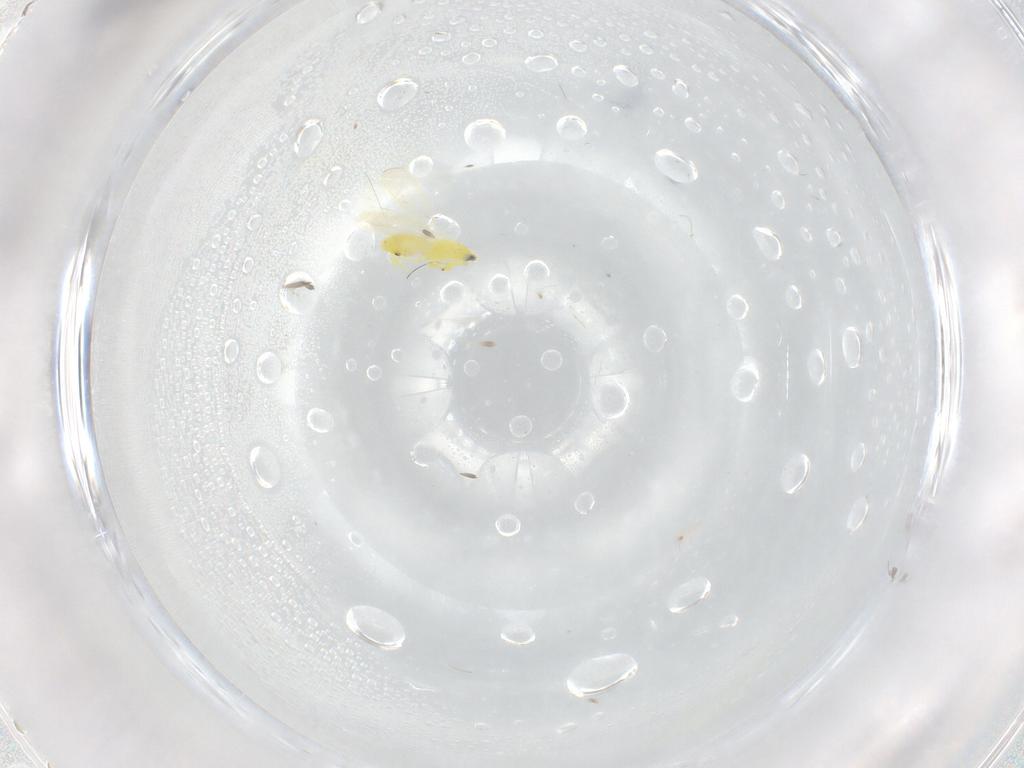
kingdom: Animalia
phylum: Arthropoda
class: Insecta
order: Hemiptera
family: Aleyrodidae
